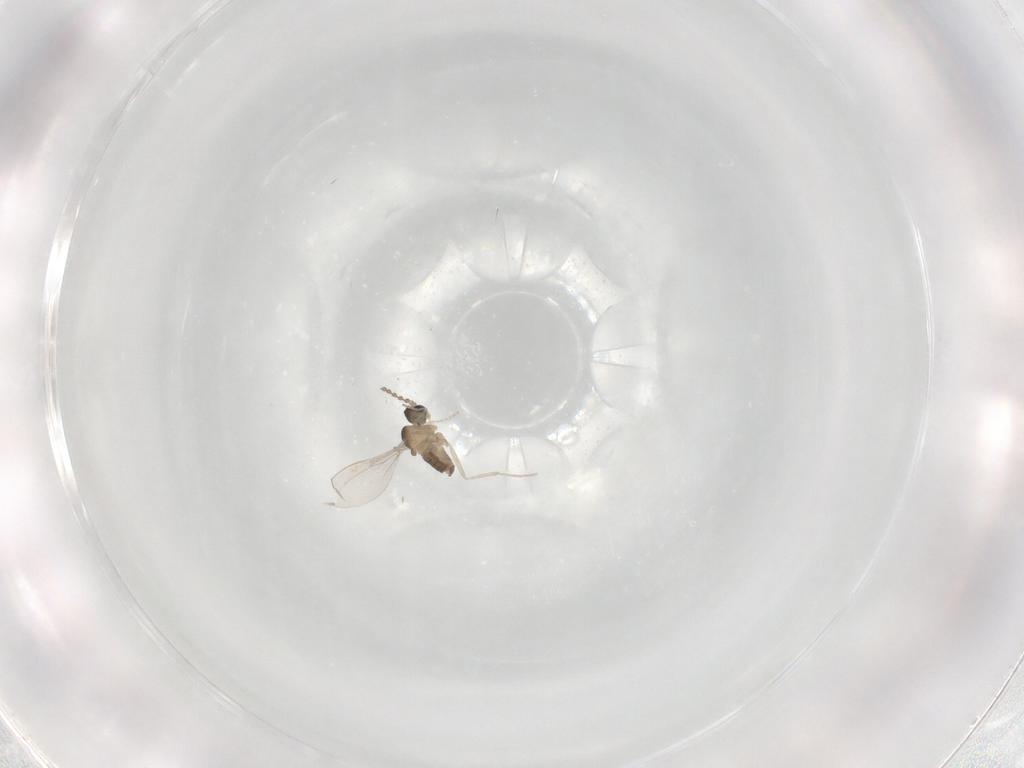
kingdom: Animalia
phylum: Arthropoda
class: Insecta
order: Diptera
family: Cecidomyiidae
